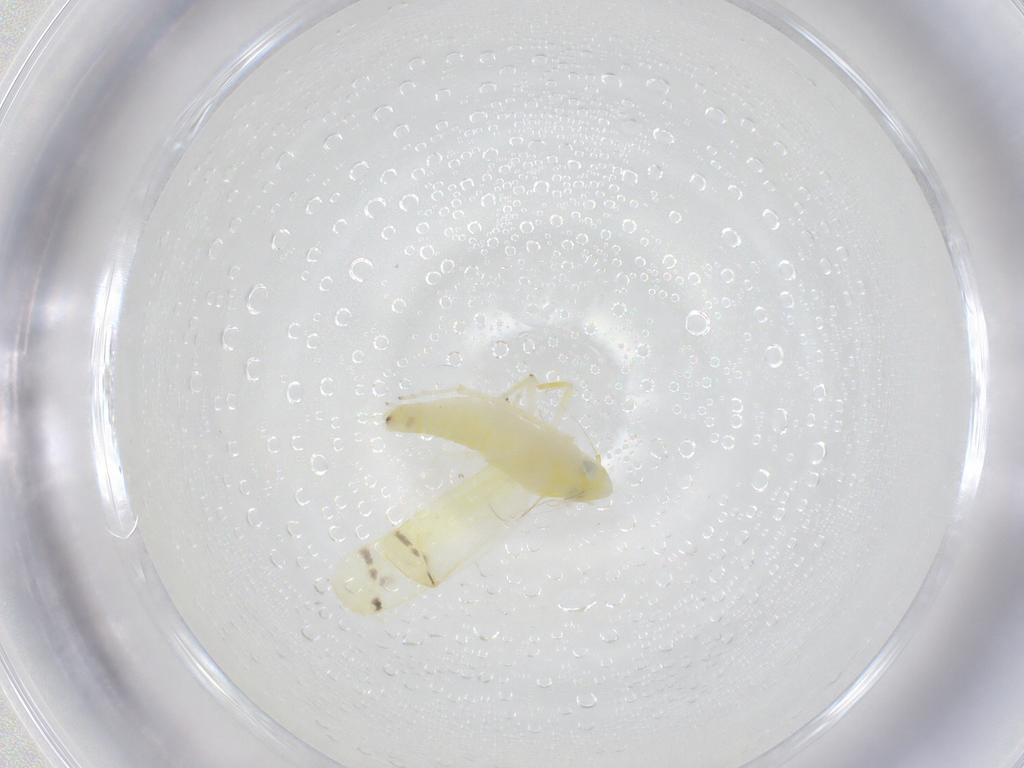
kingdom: Animalia
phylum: Arthropoda
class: Insecta
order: Hemiptera
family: Cicadellidae
